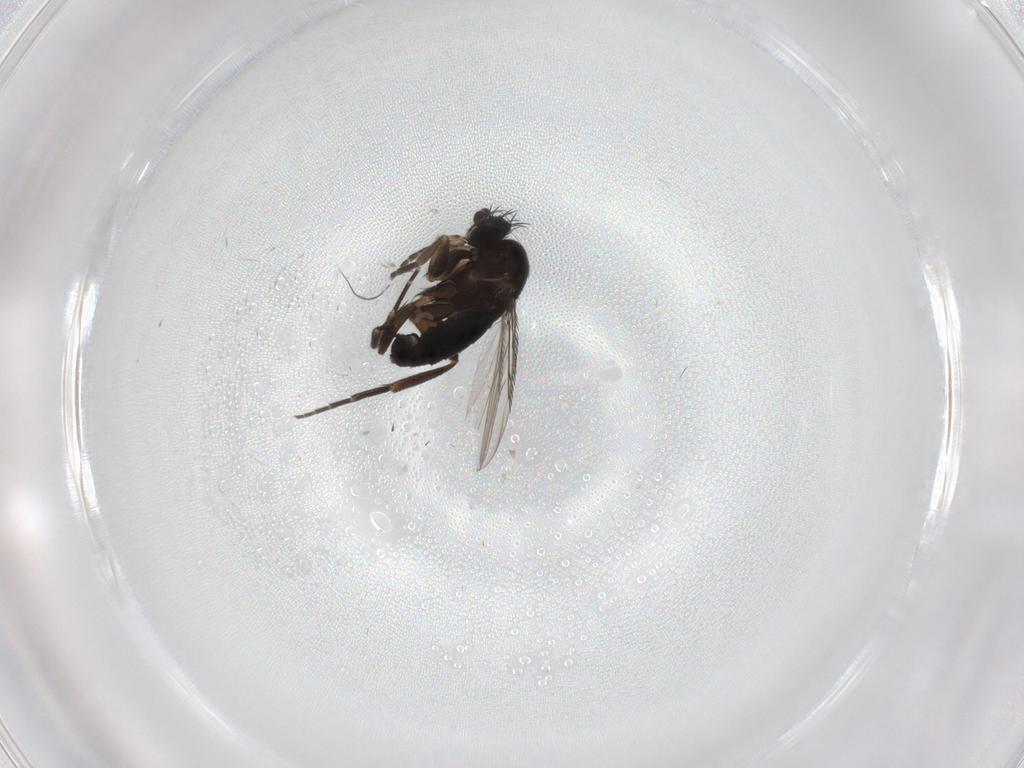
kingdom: Animalia
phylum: Arthropoda
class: Insecta
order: Diptera
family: Phoridae
